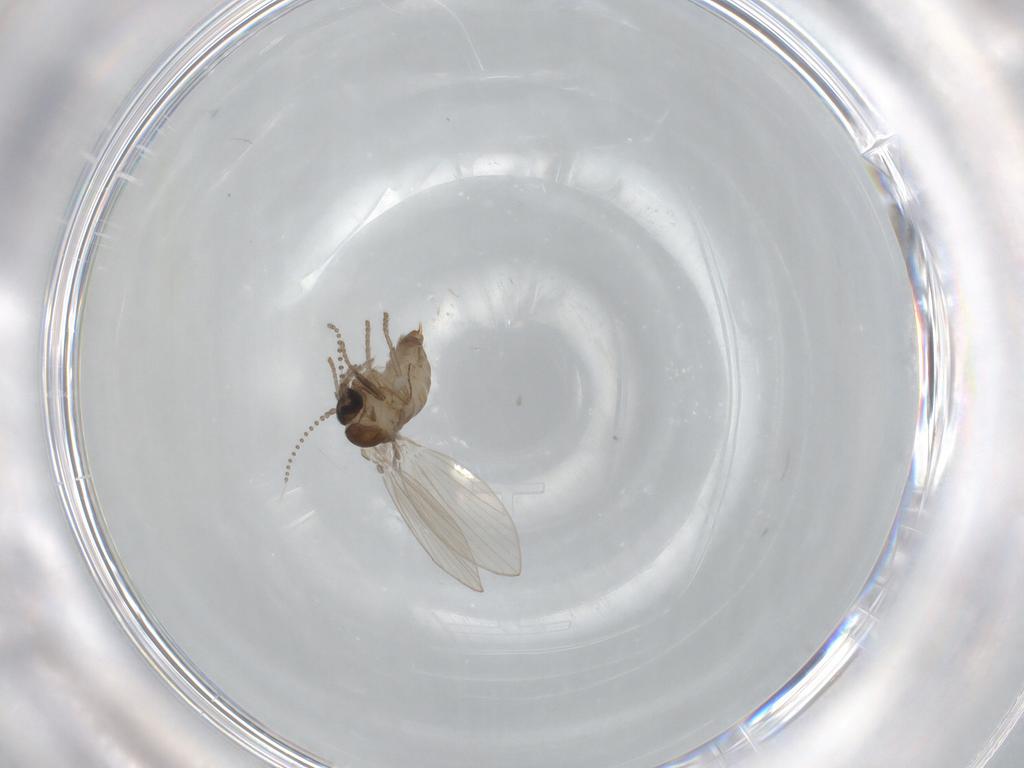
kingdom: Animalia
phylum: Arthropoda
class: Insecta
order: Diptera
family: Psychodidae
